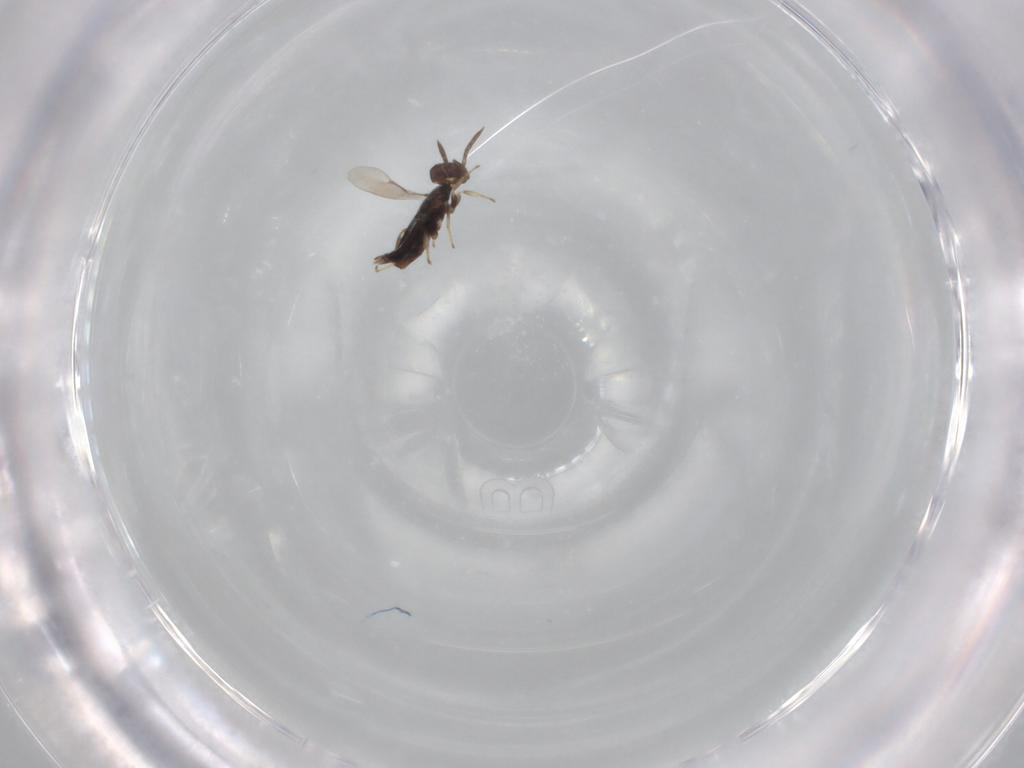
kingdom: Animalia
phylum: Arthropoda
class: Insecta
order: Hymenoptera
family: Aphelinidae
